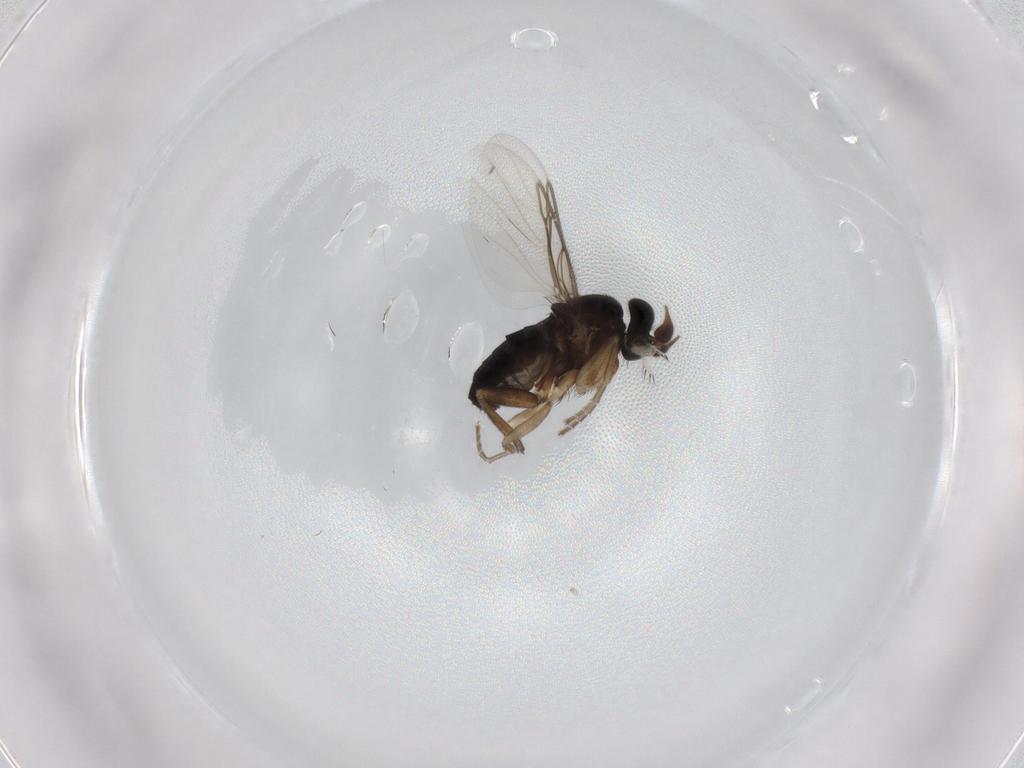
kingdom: Animalia
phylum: Arthropoda
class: Insecta
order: Diptera
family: Phoridae
